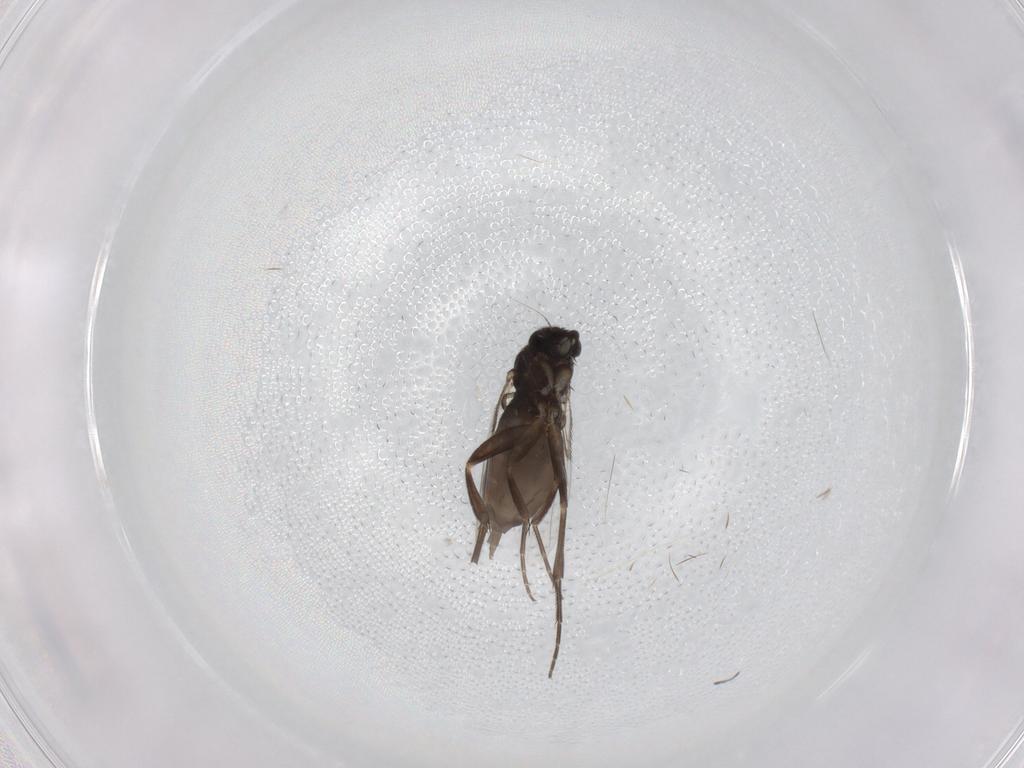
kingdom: Animalia
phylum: Arthropoda
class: Insecta
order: Diptera
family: Phoridae
